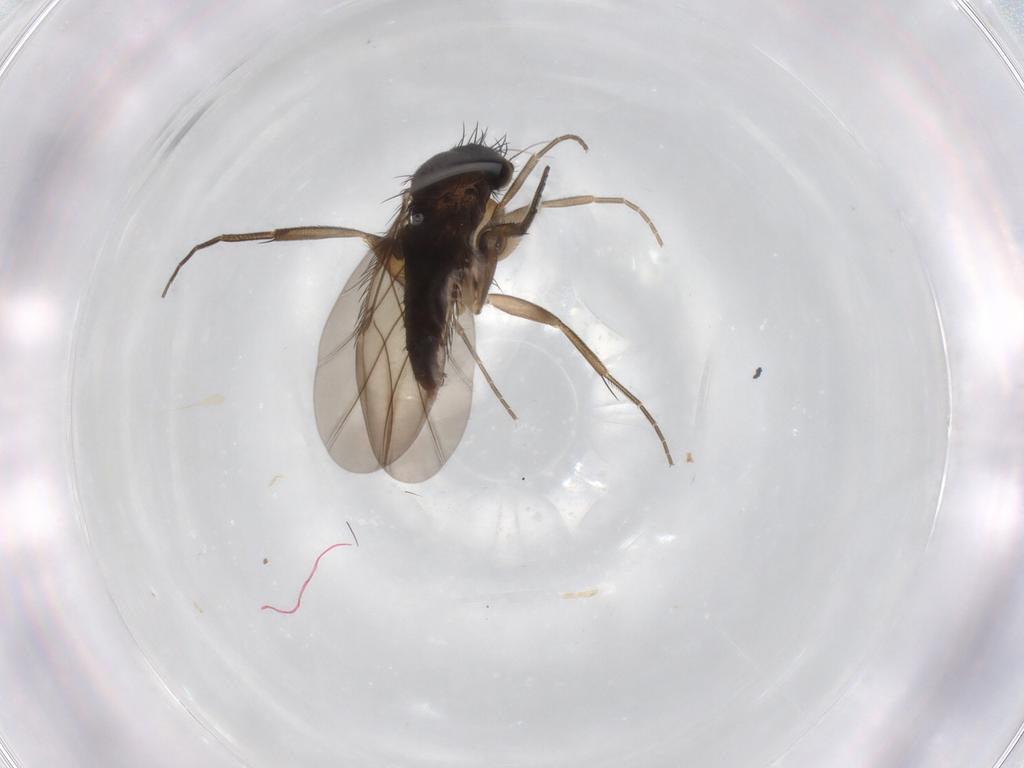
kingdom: Animalia
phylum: Arthropoda
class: Insecta
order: Diptera
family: Phoridae
